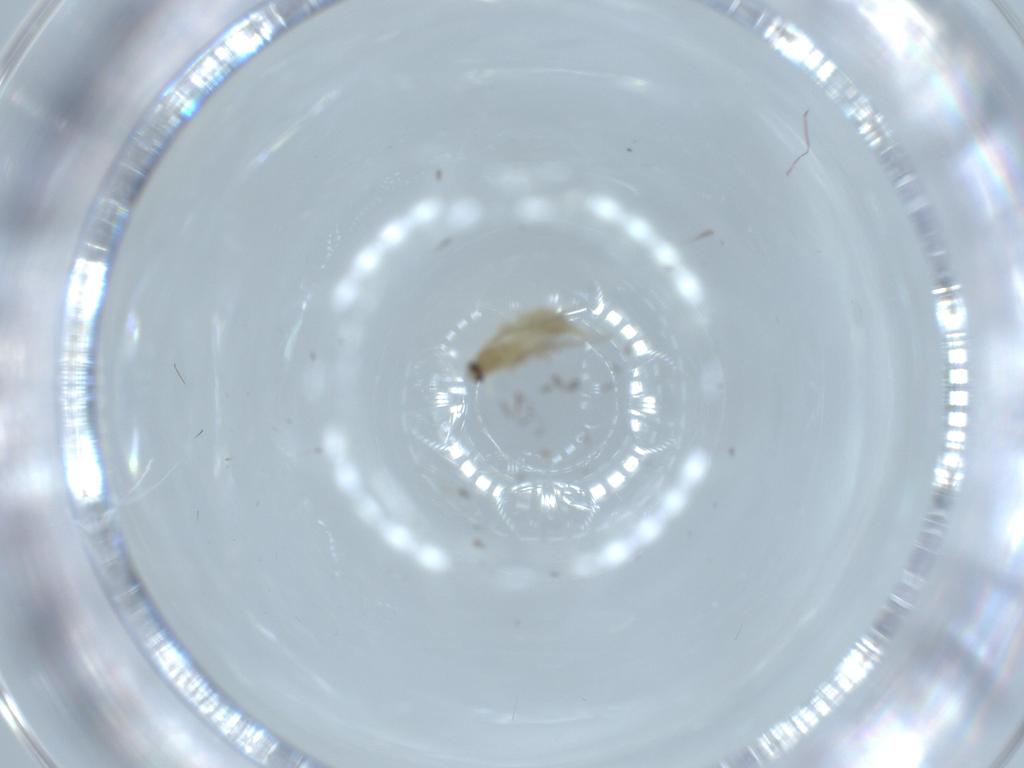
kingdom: Animalia
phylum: Arthropoda
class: Insecta
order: Diptera
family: Cecidomyiidae
